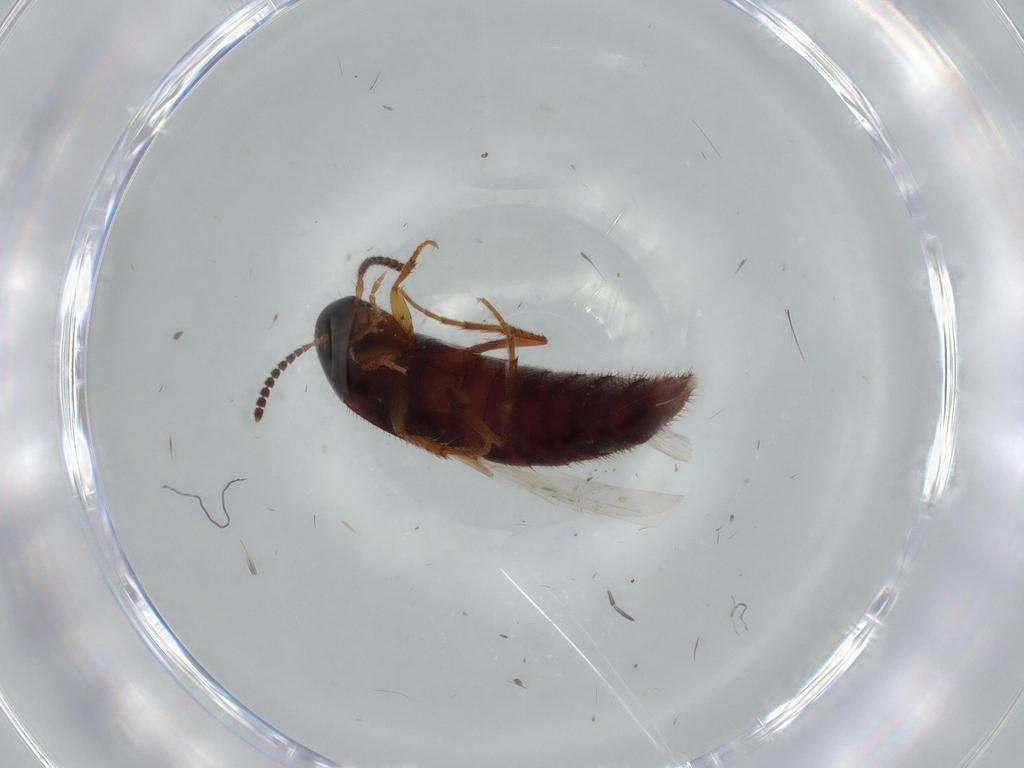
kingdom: Animalia
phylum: Arthropoda
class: Insecta
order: Coleoptera
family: Staphylinidae
